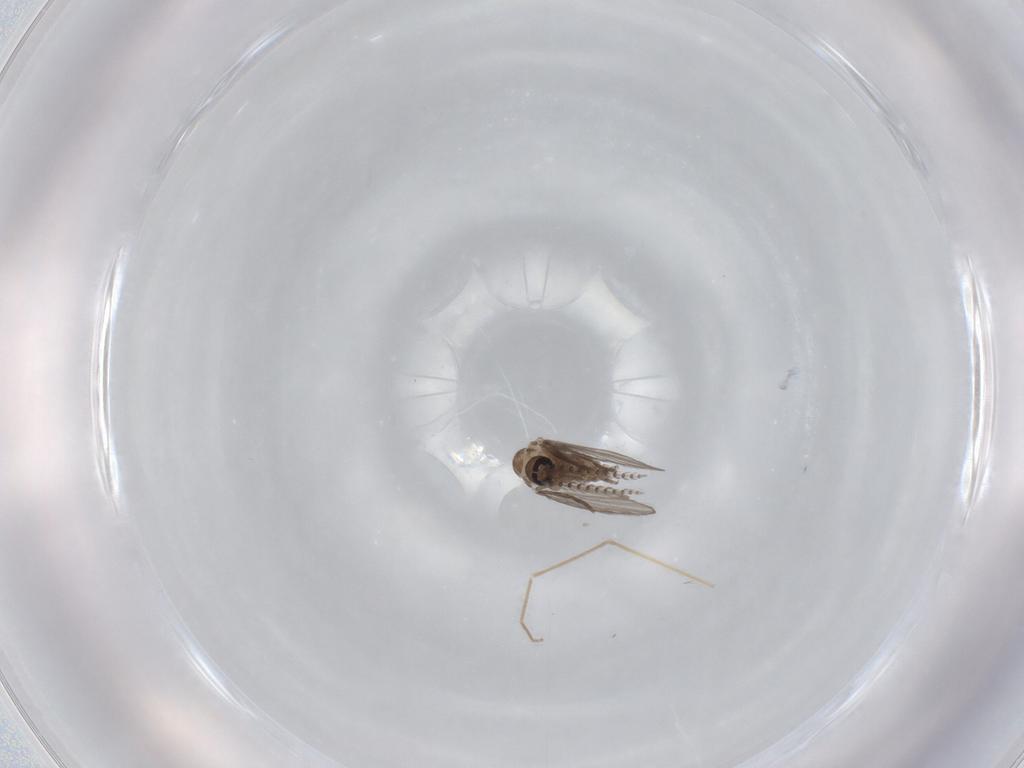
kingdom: Animalia
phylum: Arthropoda
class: Insecta
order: Diptera
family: Chironomidae
